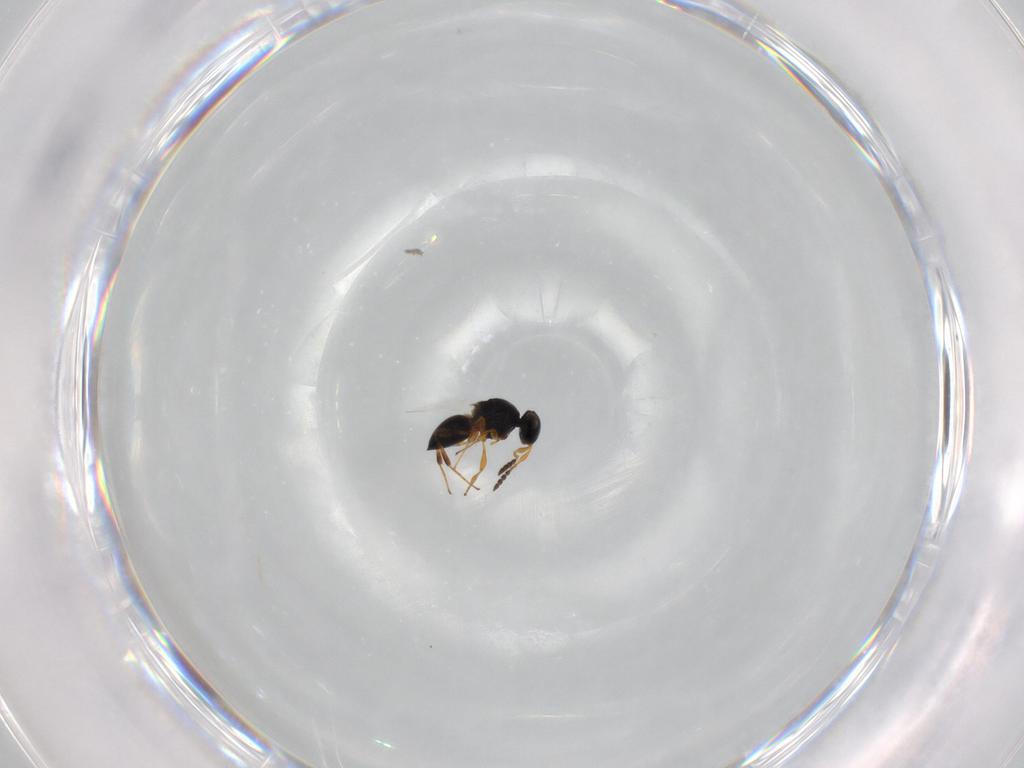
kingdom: Animalia
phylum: Arthropoda
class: Insecta
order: Hymenoptera
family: Platygastridae
